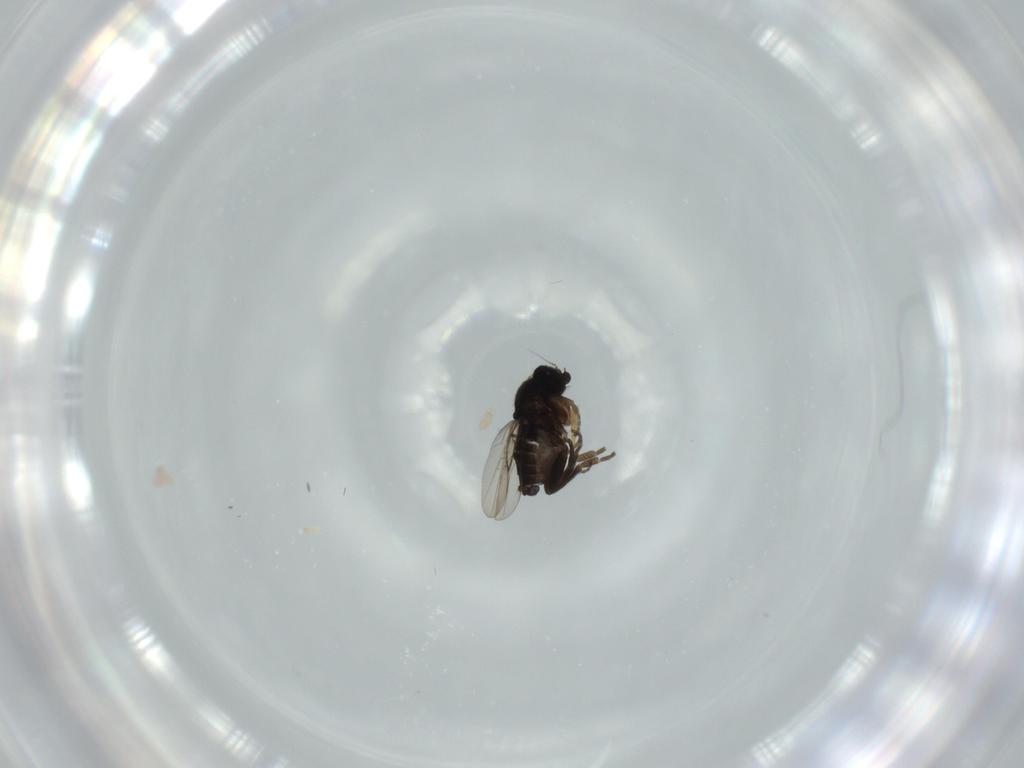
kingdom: Animalia
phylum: Arthropoda
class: Insecta
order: Diptera
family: Phoridae
